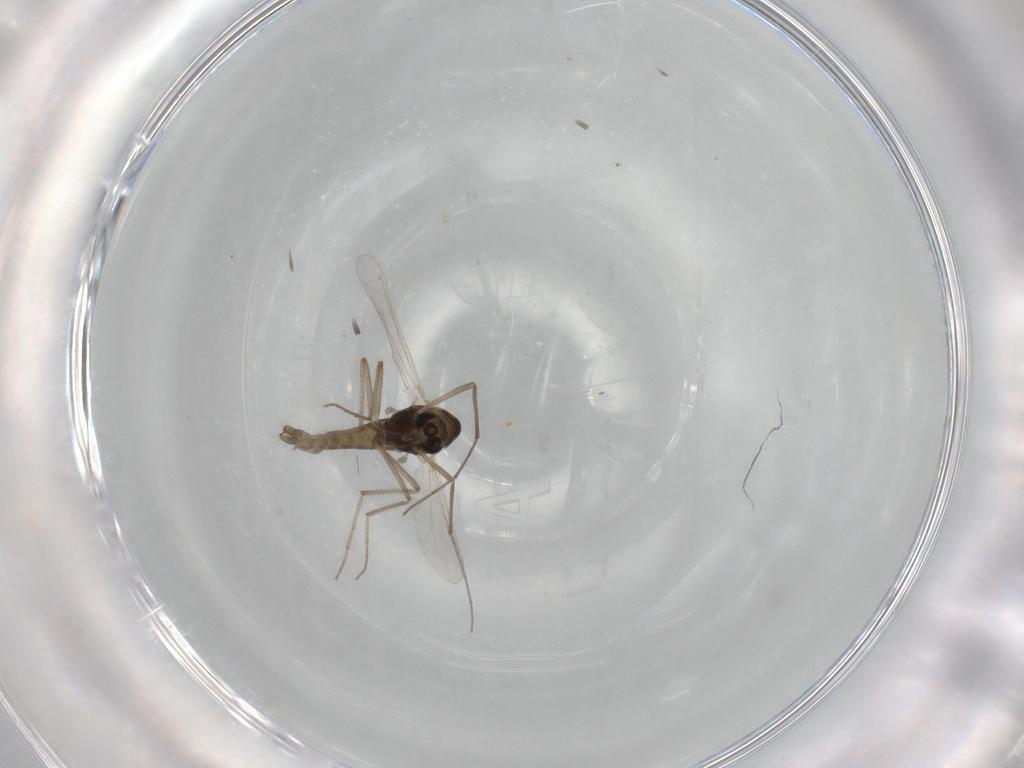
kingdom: Animalia
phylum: Arthropoda
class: Insecta
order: Diptera
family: Chironomidae
